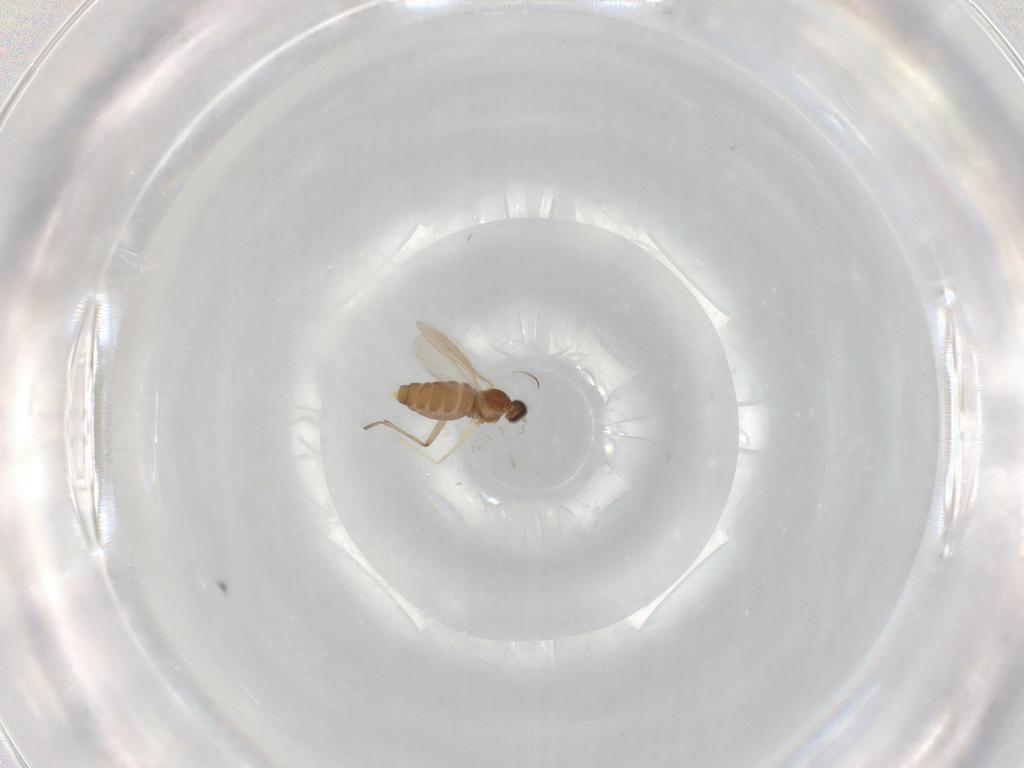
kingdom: Animalia
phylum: Arthropoda
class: Insecta
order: Diptera
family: Cecidomyiidae
